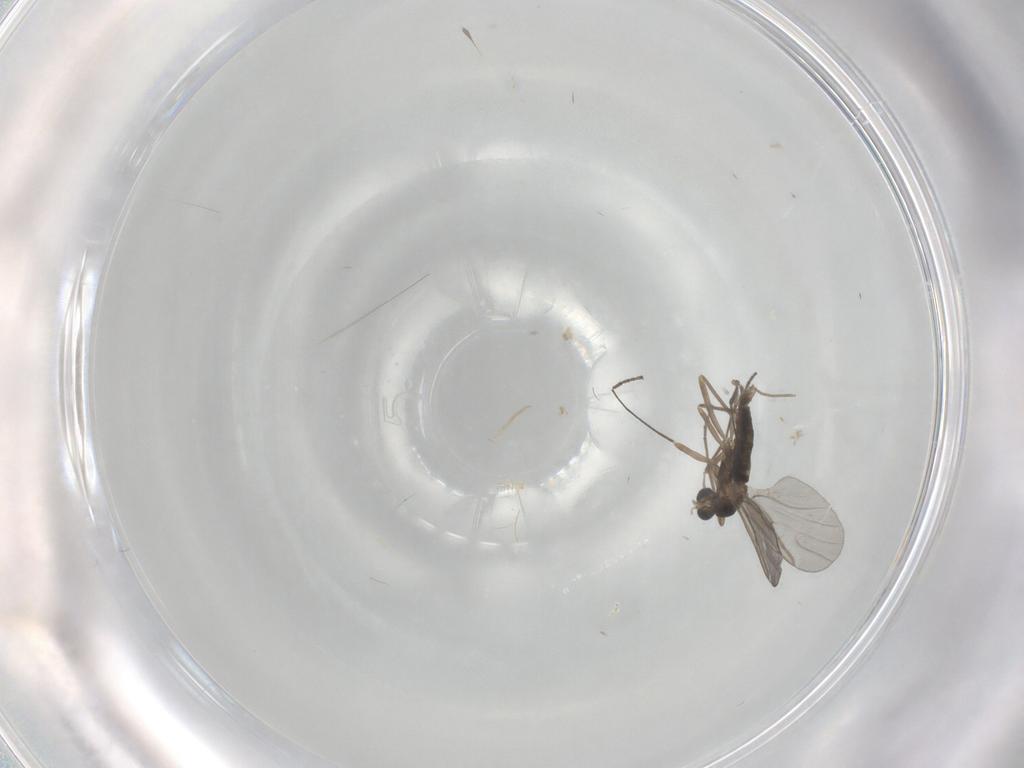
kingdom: Animalia
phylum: Arthropoda
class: Insecta
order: Diptera
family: Cecidomyiidae
